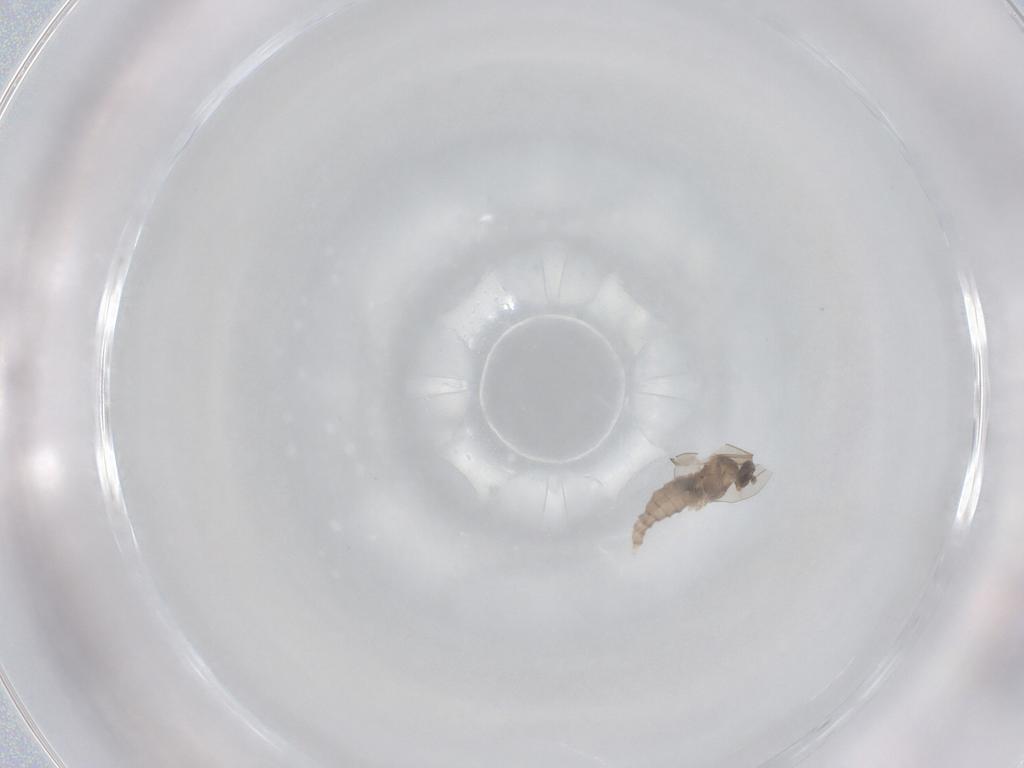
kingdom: Animalia
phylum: Arthropoda
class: Insecta
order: Diptera
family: Cecidomyiidae
